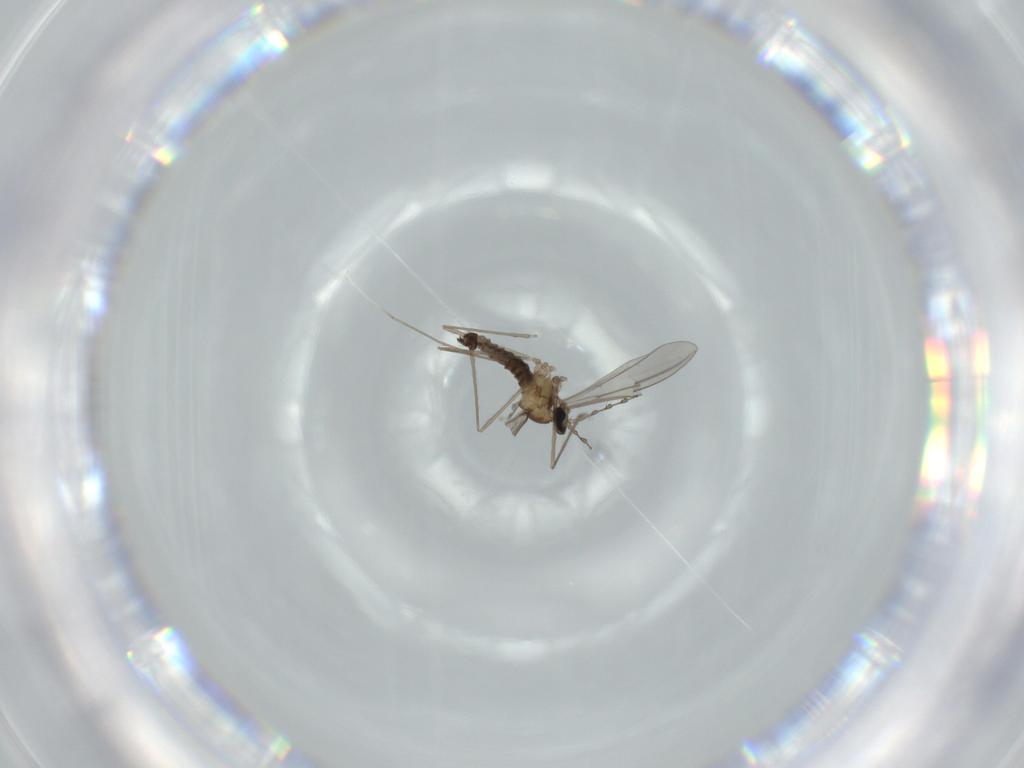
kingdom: Animalia
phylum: Arthropoda
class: Insecta
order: Diptera
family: Cecidomyiidae
